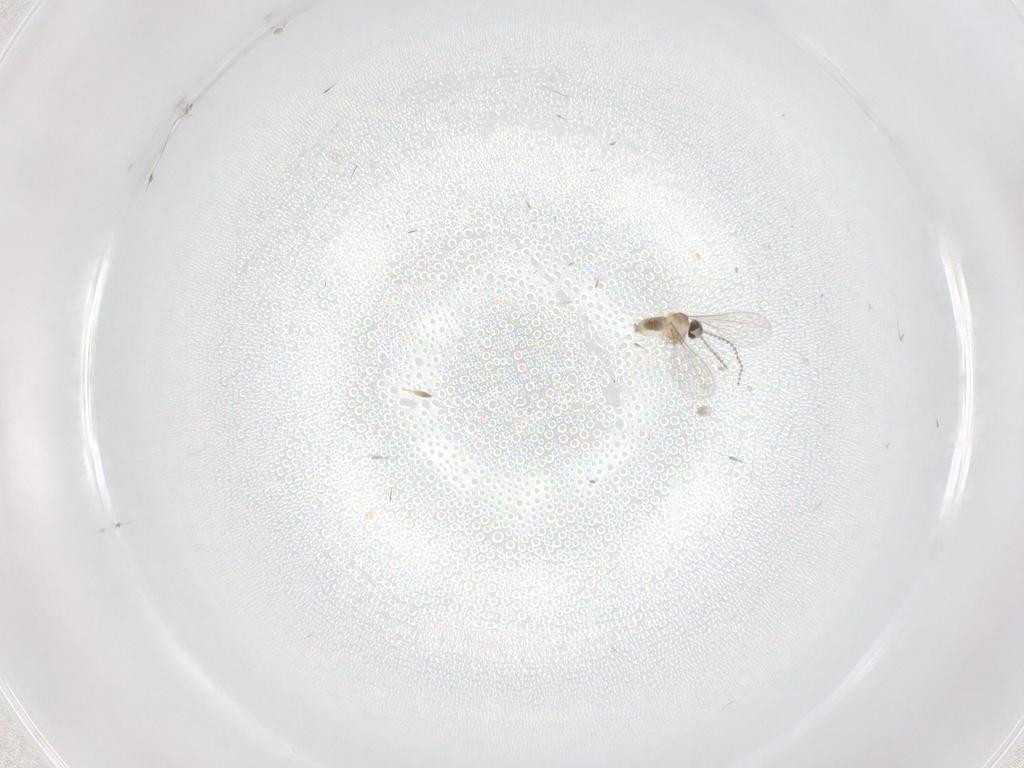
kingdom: Animalia
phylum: Arthropoda
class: Insecta
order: Diptera
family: Cecidomyiidae
